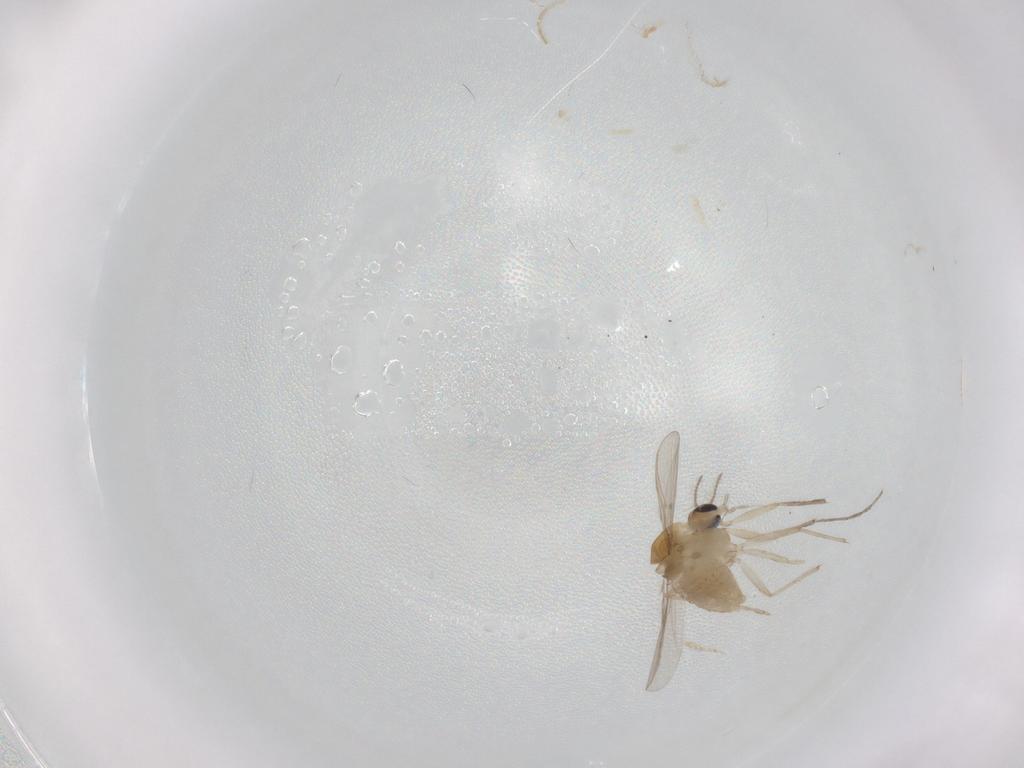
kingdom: Animalia
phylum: Arthropoda
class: Insecta
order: Diptera
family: Chironomidae
